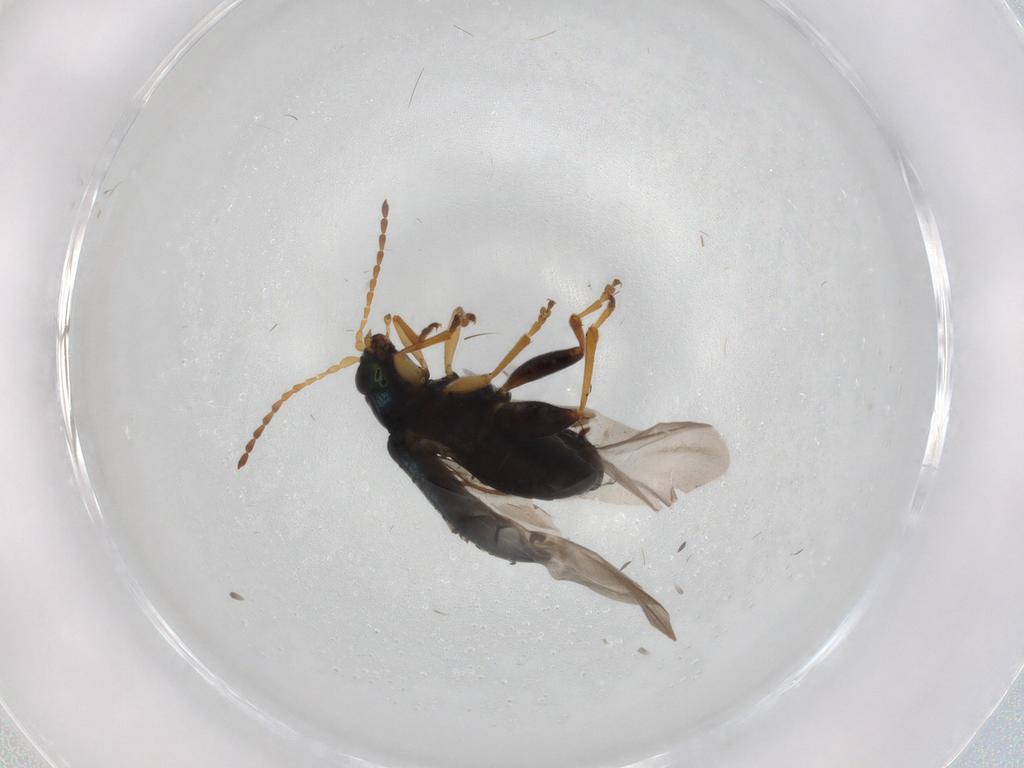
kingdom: Animalia
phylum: Arthropoda
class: Insecta
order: Coleoptera
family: Chrysomelidae
